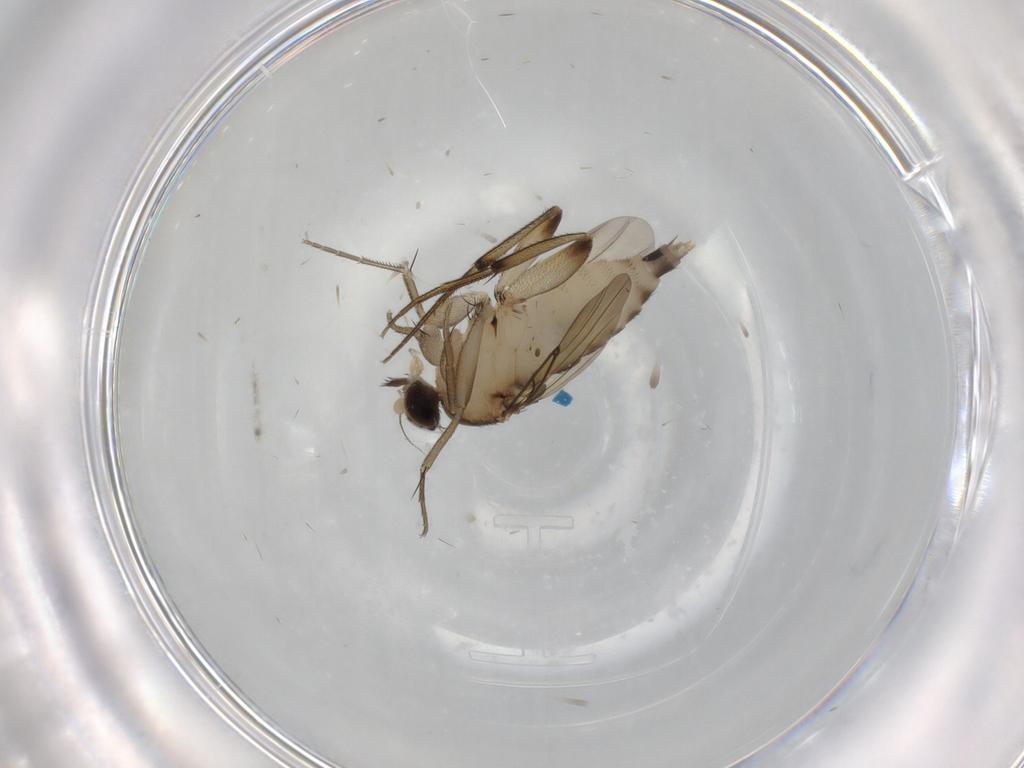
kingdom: Animalia
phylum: Arthropoda
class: Insecta
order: Diptera
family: Phoridae
